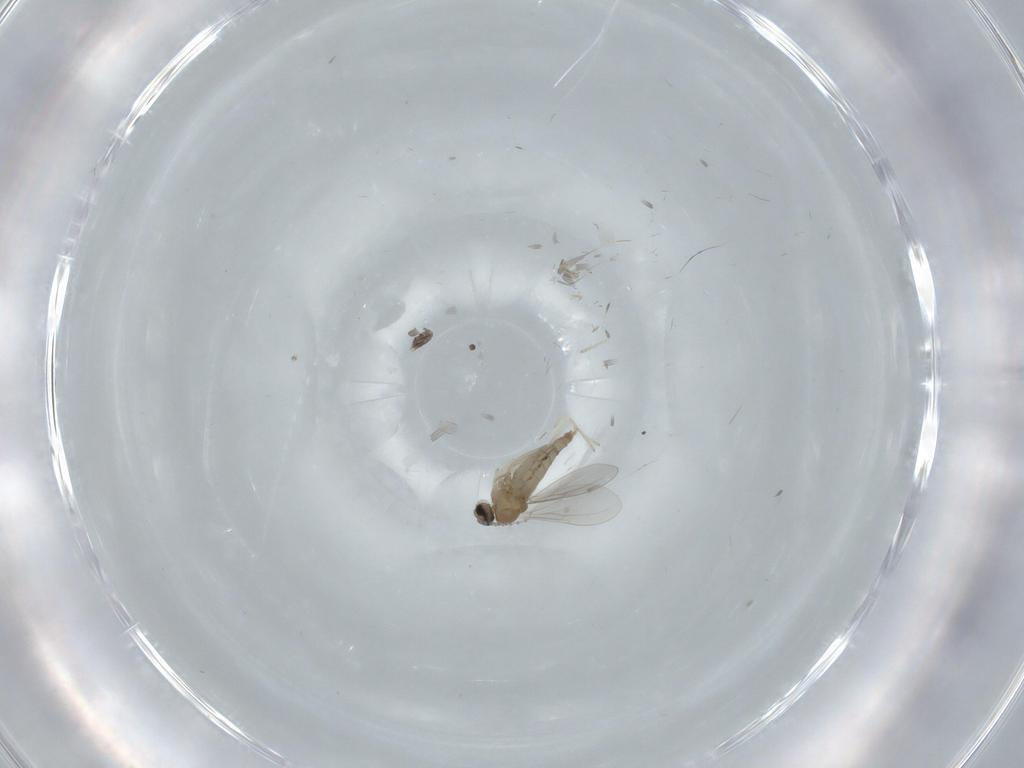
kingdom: Animalia
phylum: Arthropoda
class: Insecta
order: Diptera
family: Cecidomyiidae
